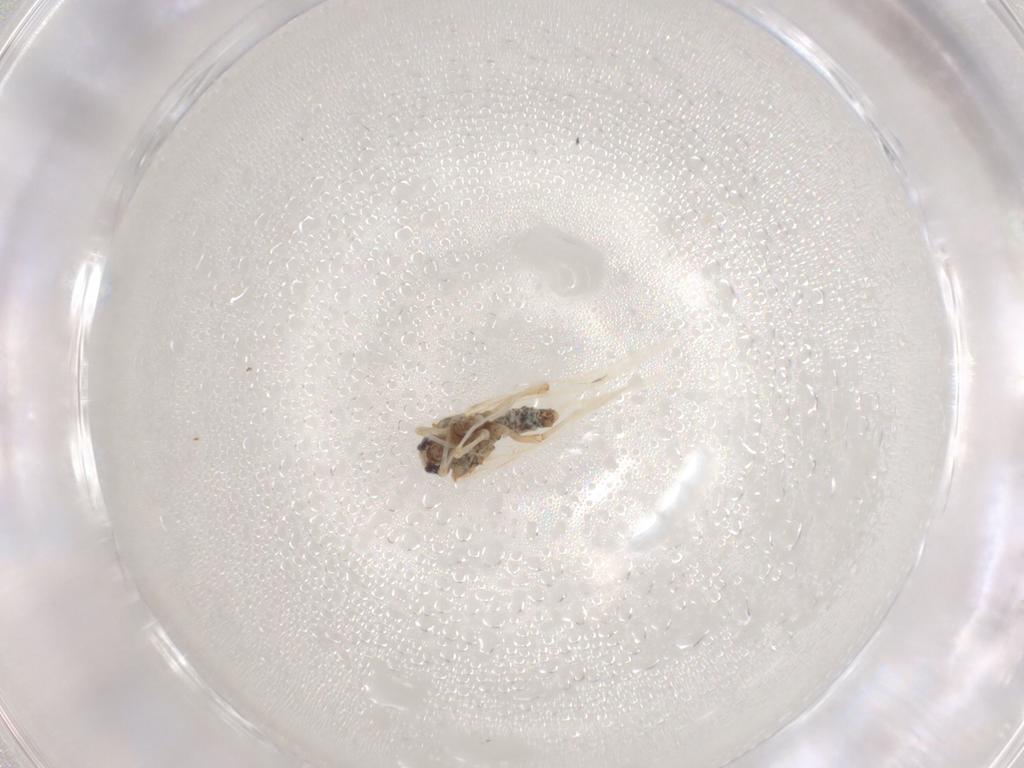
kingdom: Animalia
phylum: Arthropoda
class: Insecta
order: Neuroptera
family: Coniopterygidae
